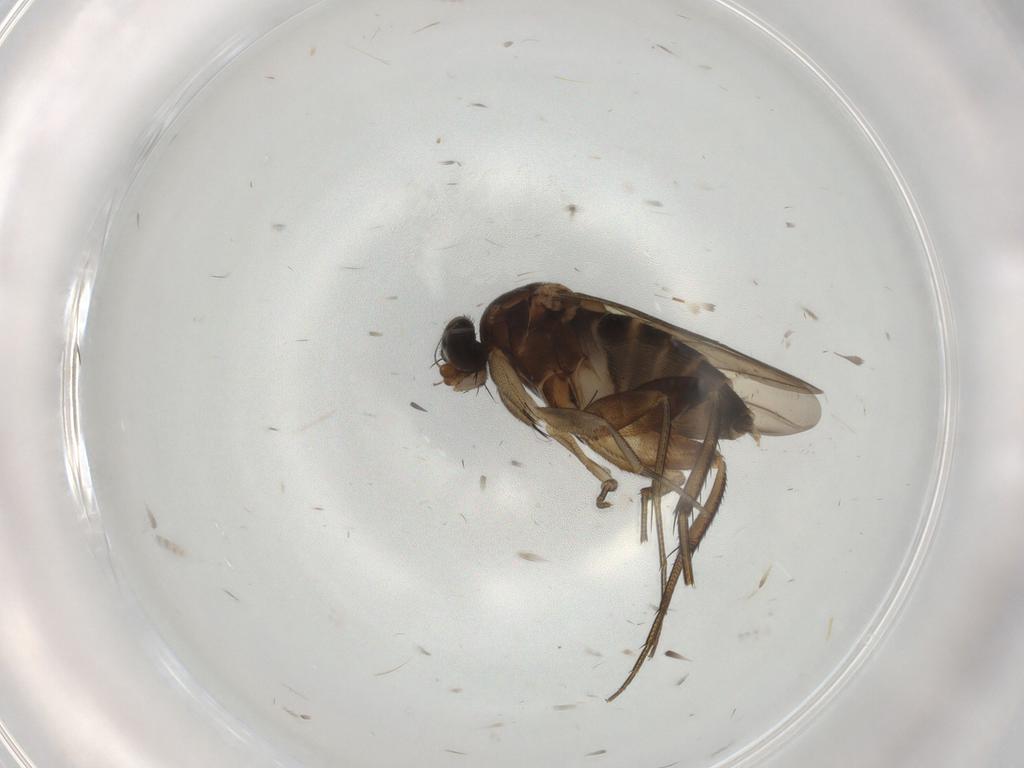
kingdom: Animalia
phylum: Arthropoda
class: Insecta
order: Diptera
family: Phoridae
